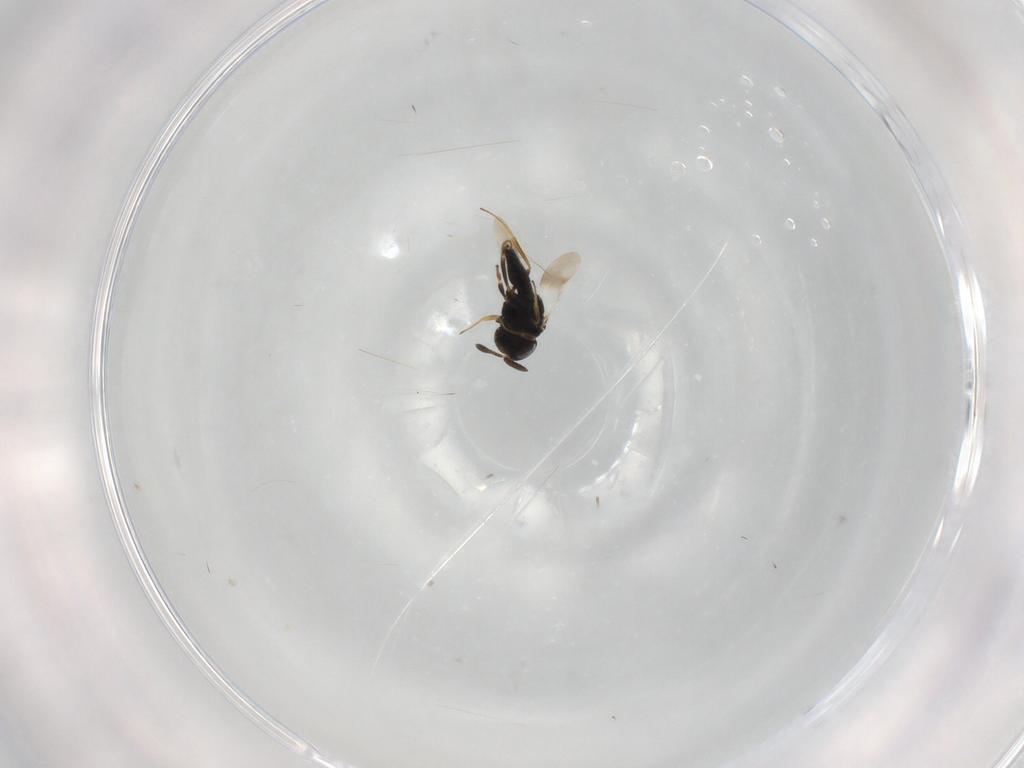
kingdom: Animalia
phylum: Arthropoda
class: Insecta
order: Hymenoptera
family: Scelionidae
